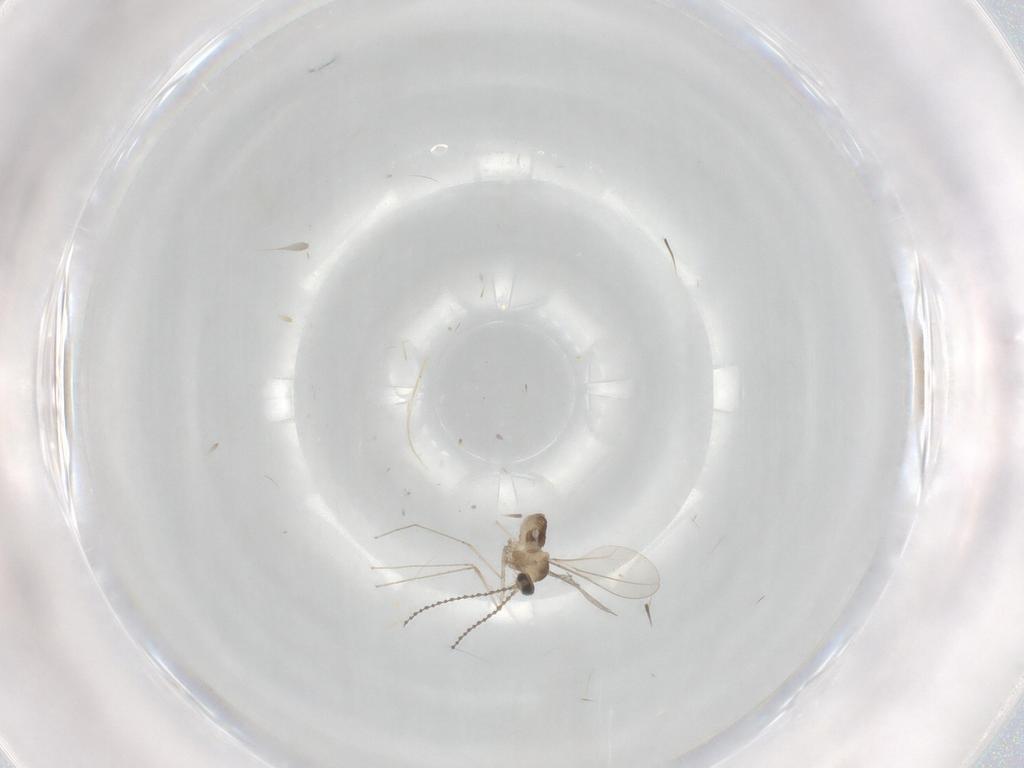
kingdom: Animalia
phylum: Arthropoda
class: Insecta
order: Diptera
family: Cecidomyiidae
